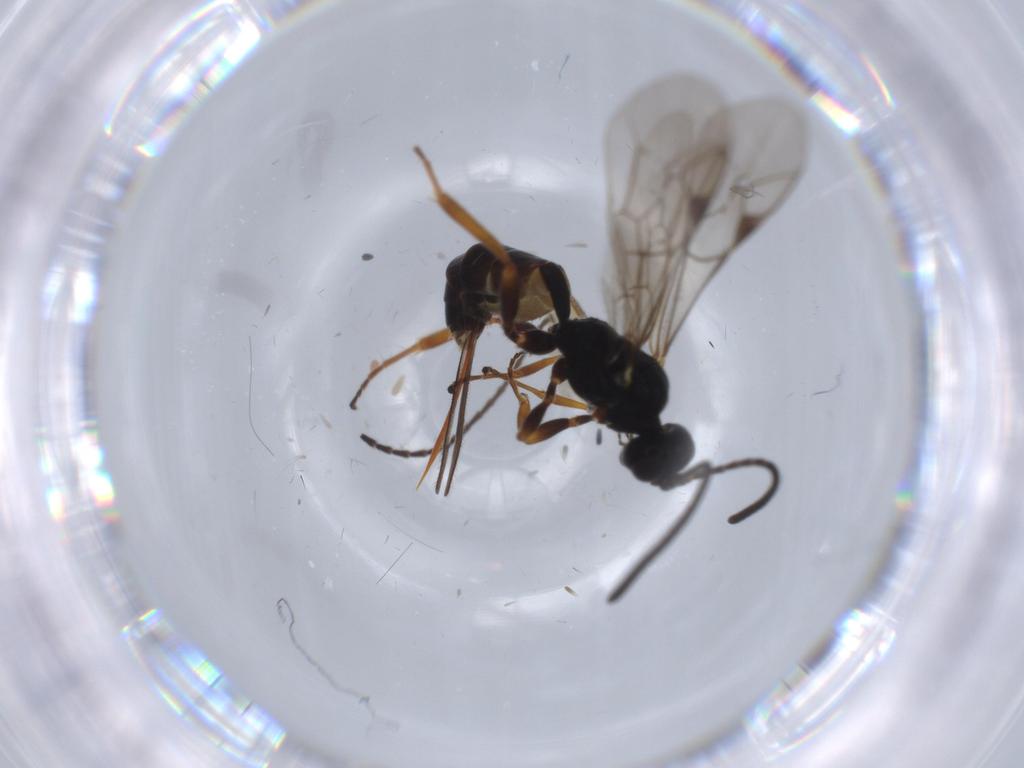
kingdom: Animalia
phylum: Arthropoda
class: Insecta
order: Hymenoptera
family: Ichneumonidae
